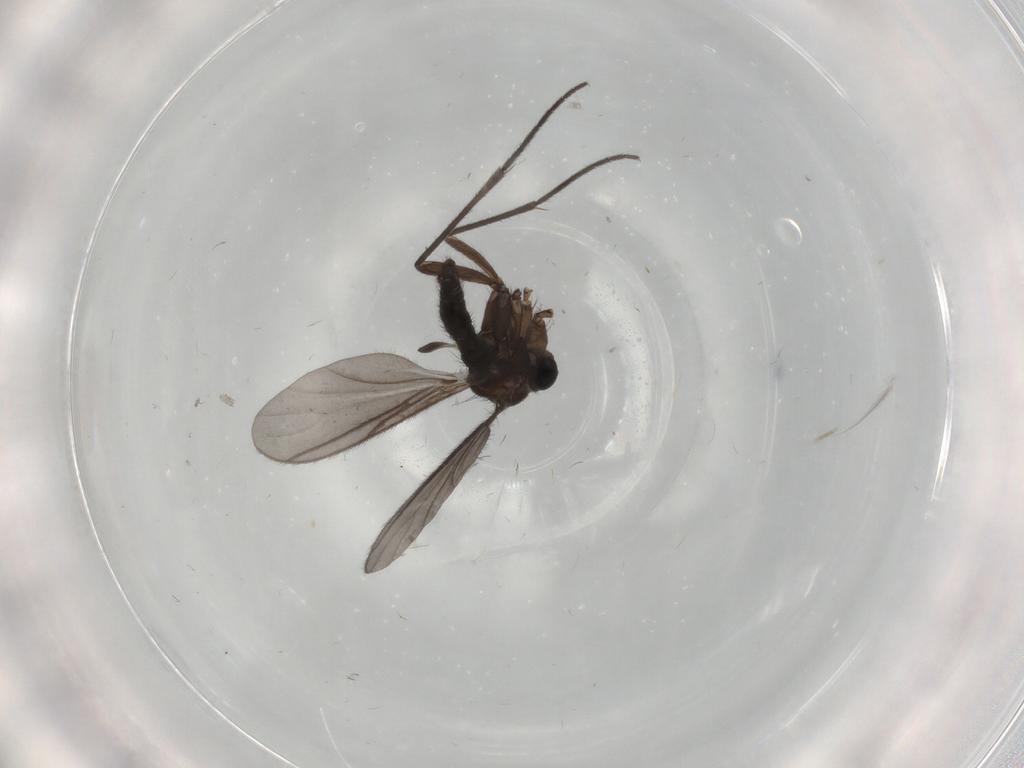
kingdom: Animalia
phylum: Arthropoda
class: Insecta
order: Diptera
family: Sciaridae
